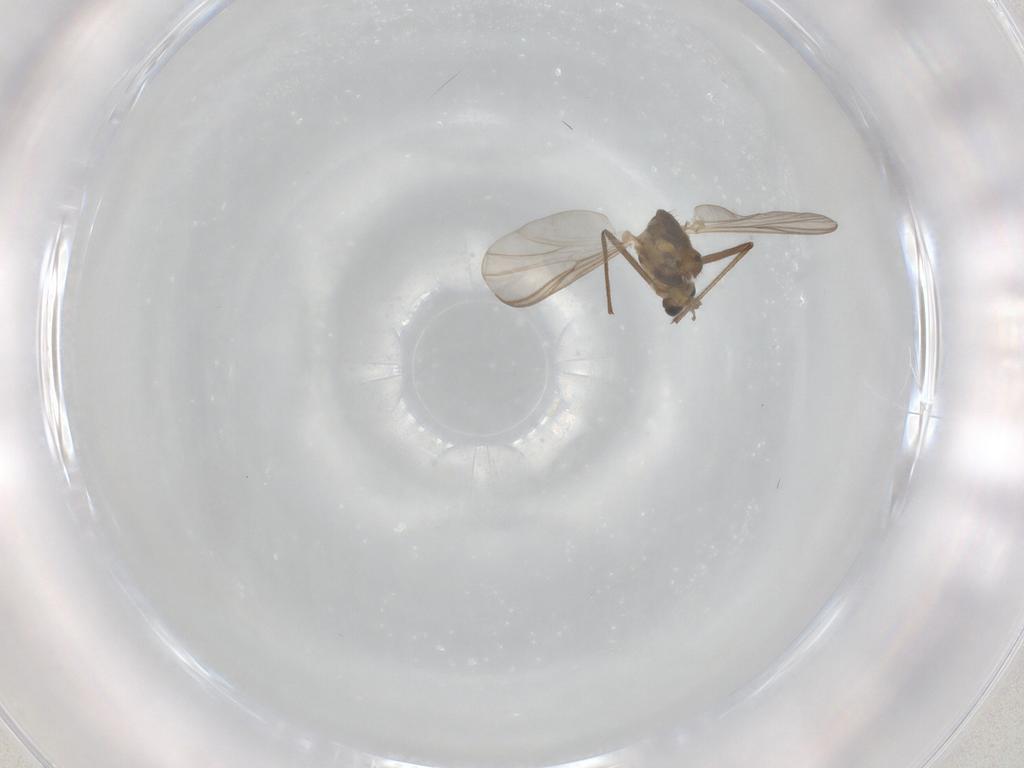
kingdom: Animalia
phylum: Arthropoda
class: Insecta
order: Diptera
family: Chironomidae
